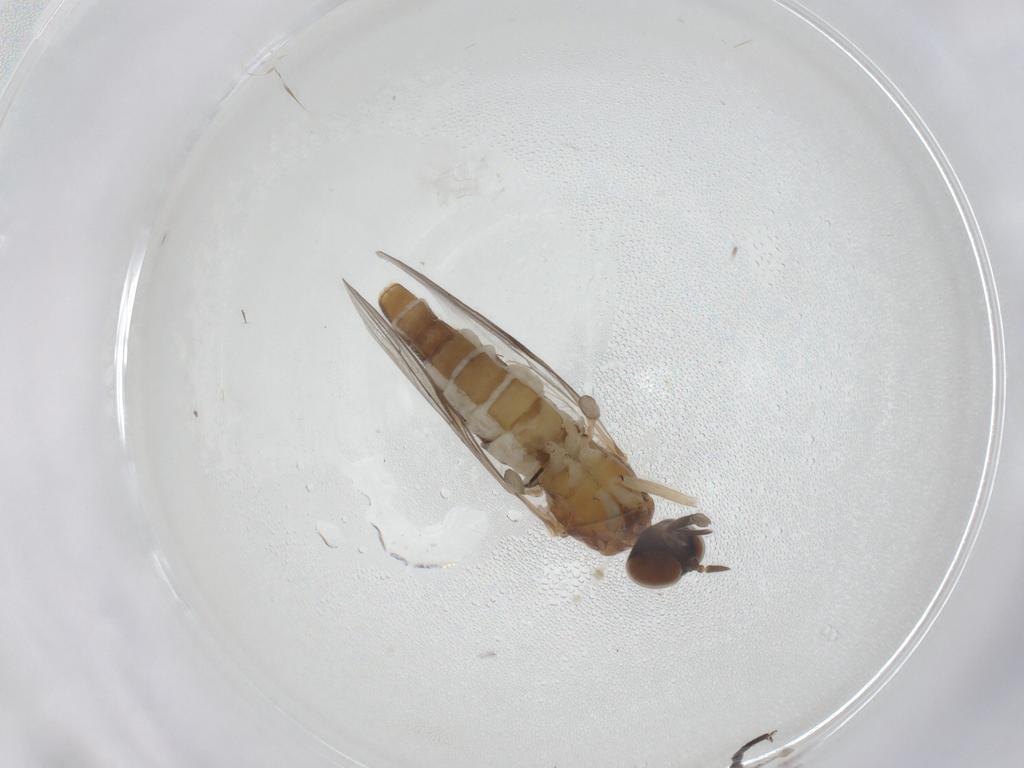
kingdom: Animalia
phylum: Arthropoda
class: Insecta
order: Diptera
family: Scenopinidae
